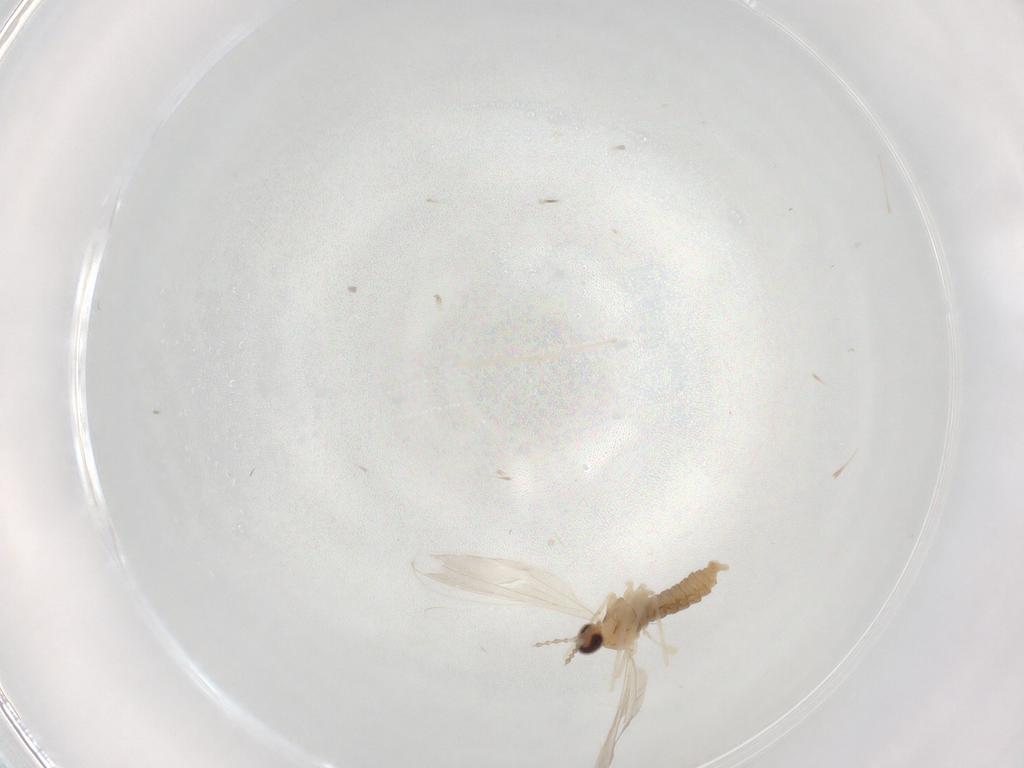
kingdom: Animalia
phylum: Arthropoda
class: Insecta
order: Diptera
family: Cecidomyiidae
